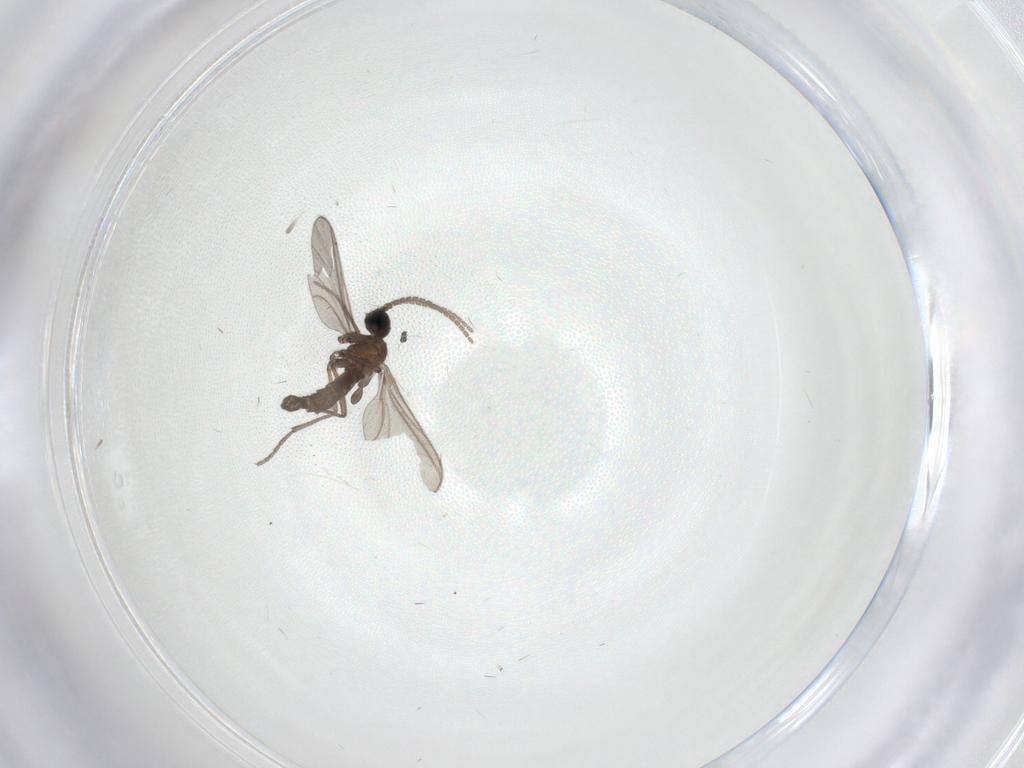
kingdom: Animalia
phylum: Arthropoda
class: Insecta
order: Diptera
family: Sciaridae
